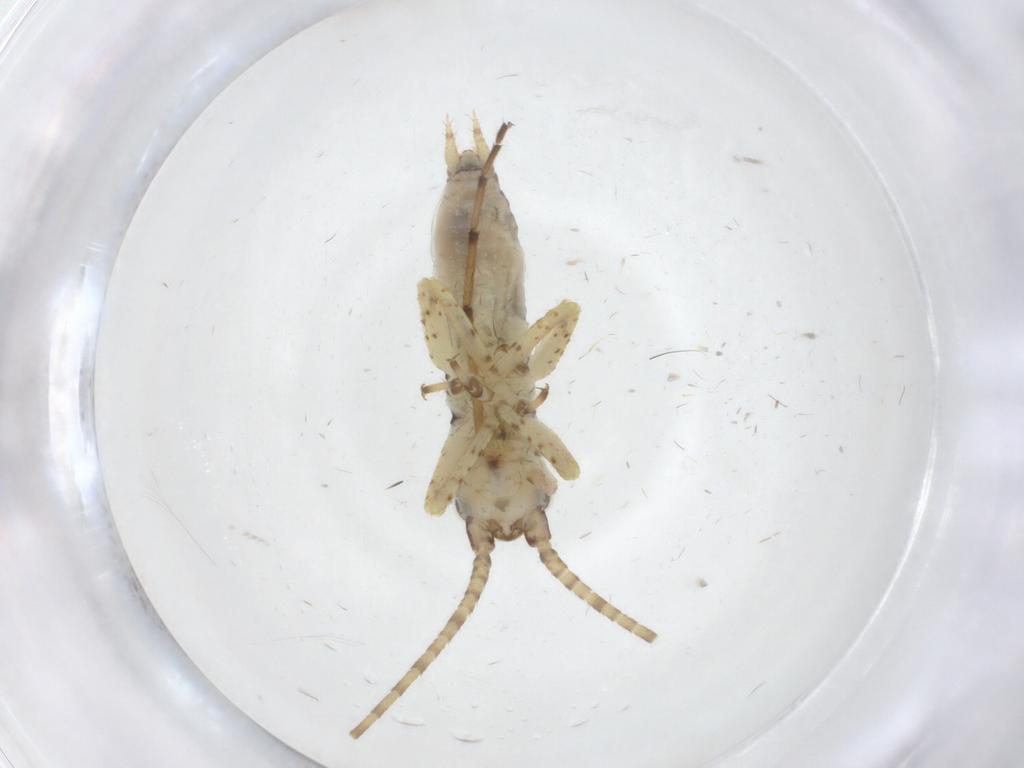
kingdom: Animalia
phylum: Arthropoda
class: Insecta
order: Orthoptera
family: Gryllidae
